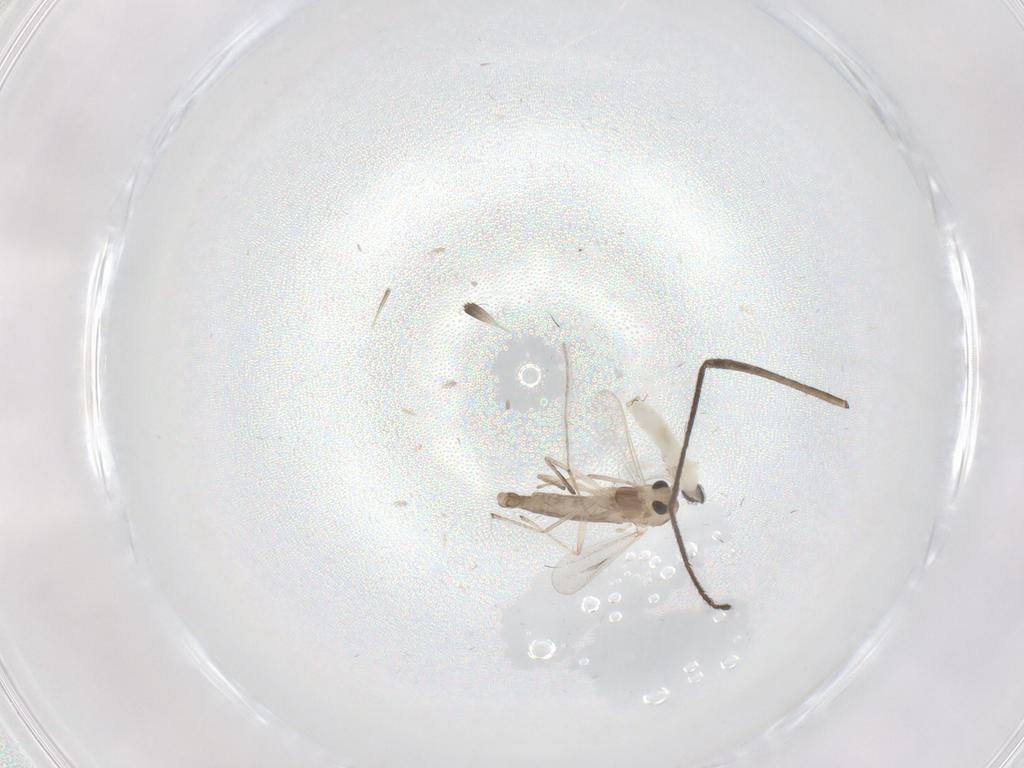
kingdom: Animalia
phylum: Arthropoda
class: Insecta
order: Diptera
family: Chironomidae
